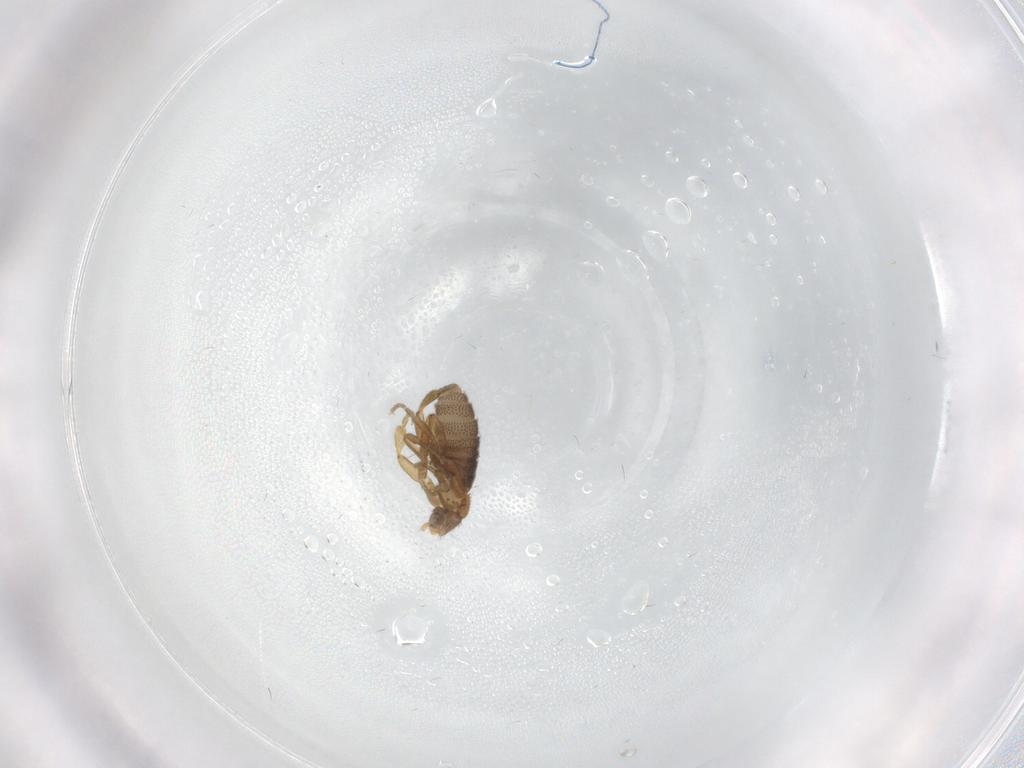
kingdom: Animalia
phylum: Arthropoda
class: Insecta
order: Diptera
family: Phoridae
